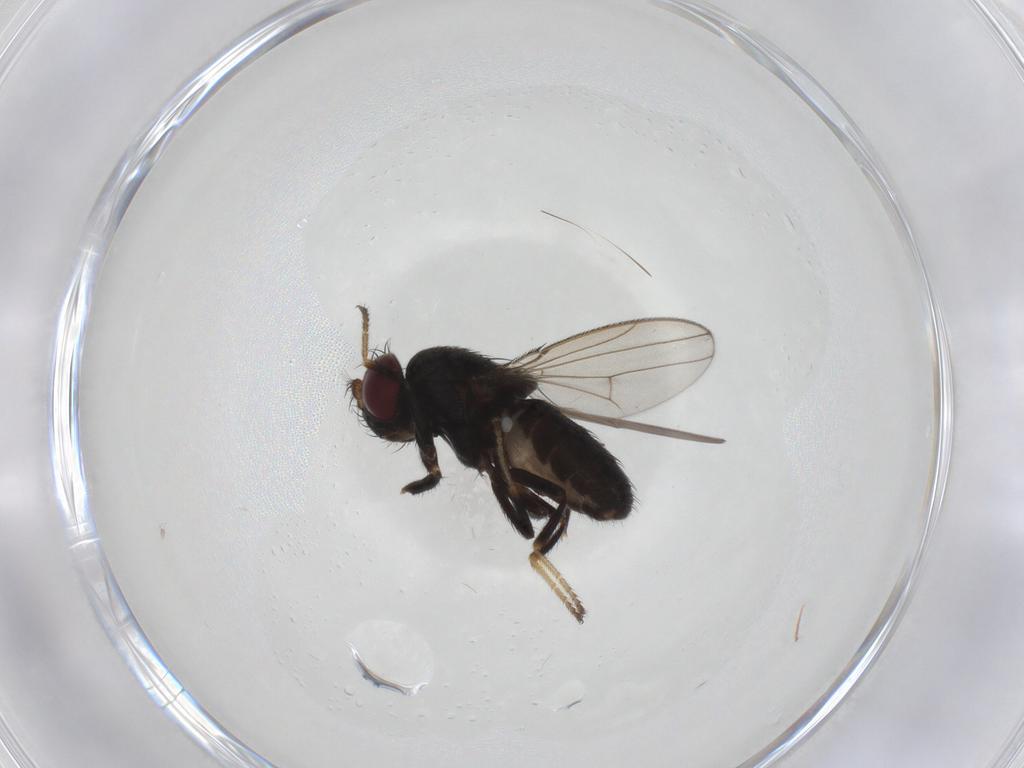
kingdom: Animalia
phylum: Arthropoda
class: Insecta
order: Diptera
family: Ephydridae
